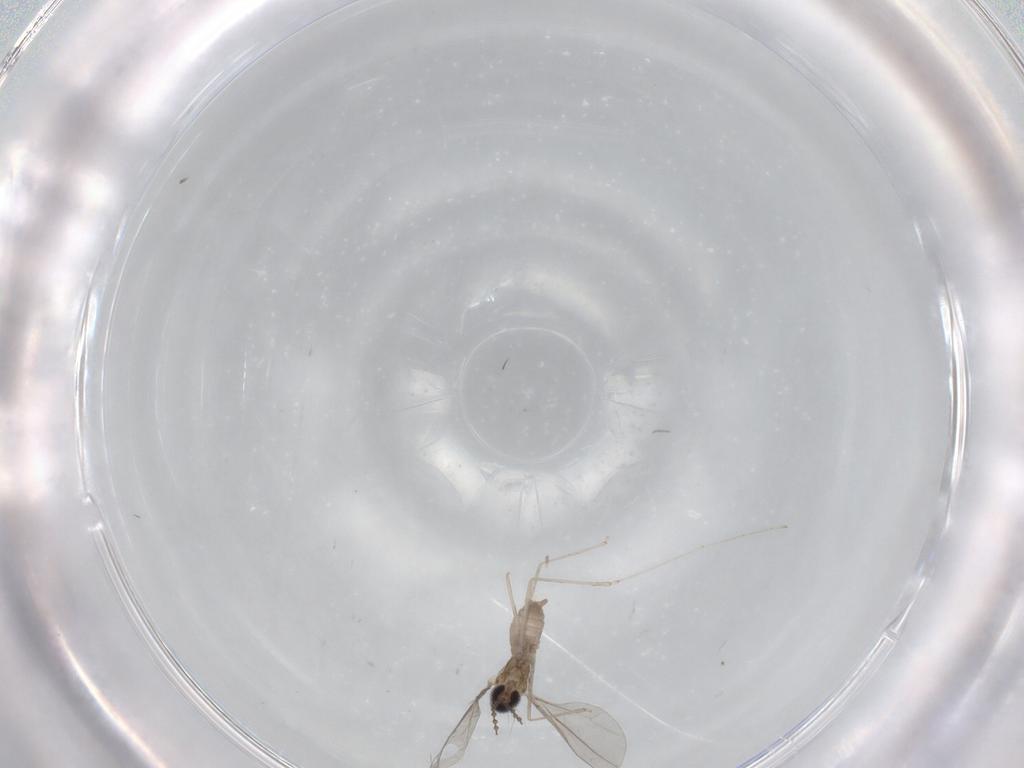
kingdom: Animalia
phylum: Arthropoda
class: Insecta
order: Diptera
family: Cecidomyiidae
